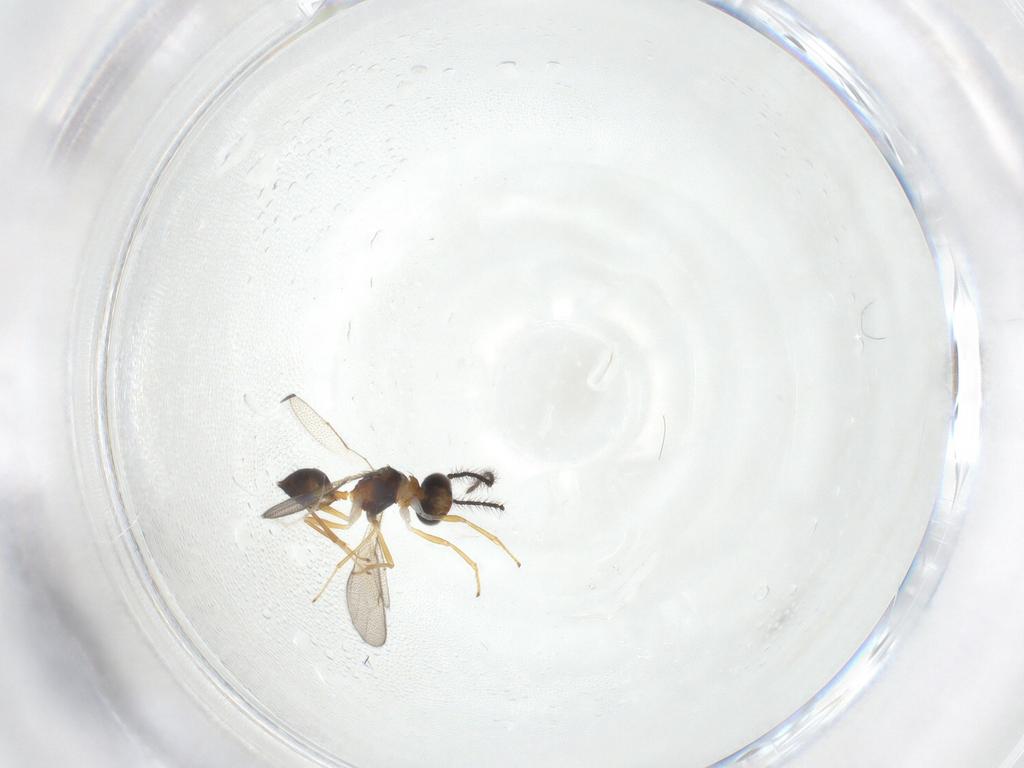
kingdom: Animalia
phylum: Arthropoda
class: Insecta
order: Hymenoptera
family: Diparidae
